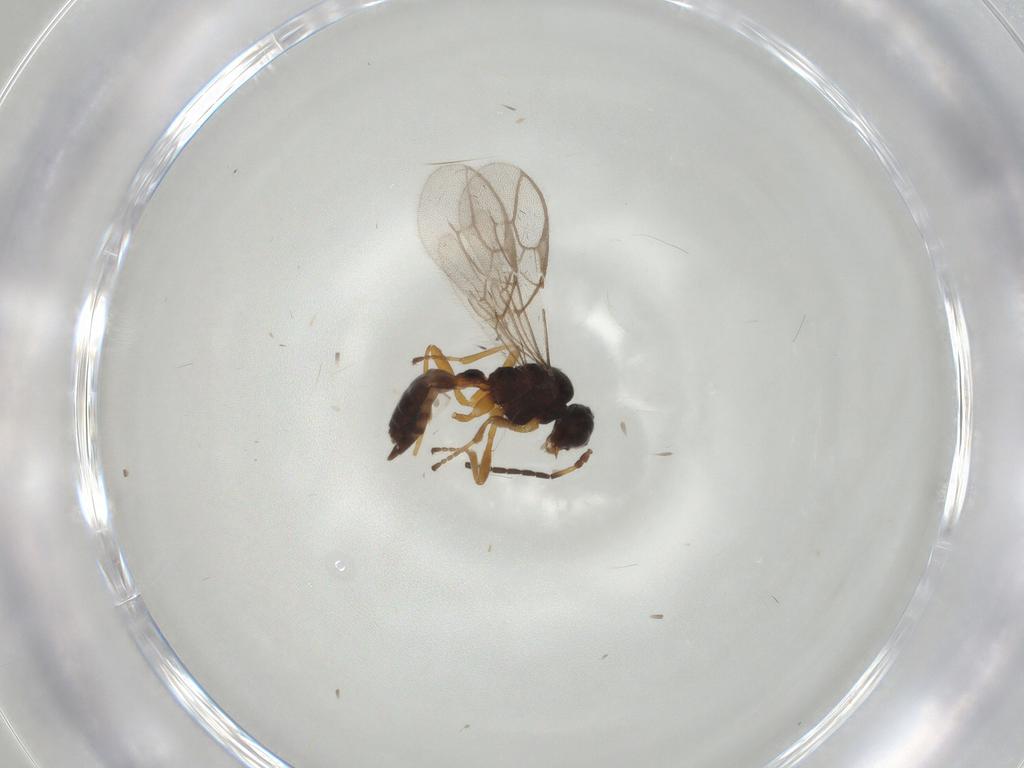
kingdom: Animalia
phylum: Arthropoda
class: Insecta
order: Hymenoptera
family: Braconidae
